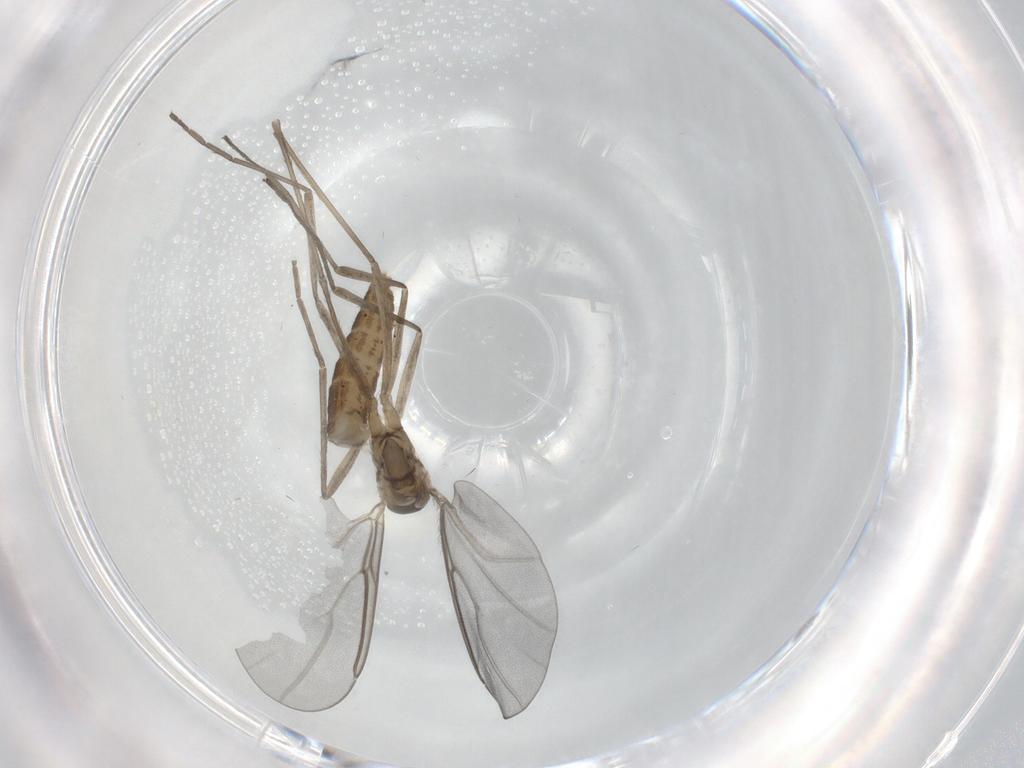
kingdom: Animalia
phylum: Arthropoda
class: Insecta
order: Diptera
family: Cecidomyiidae
